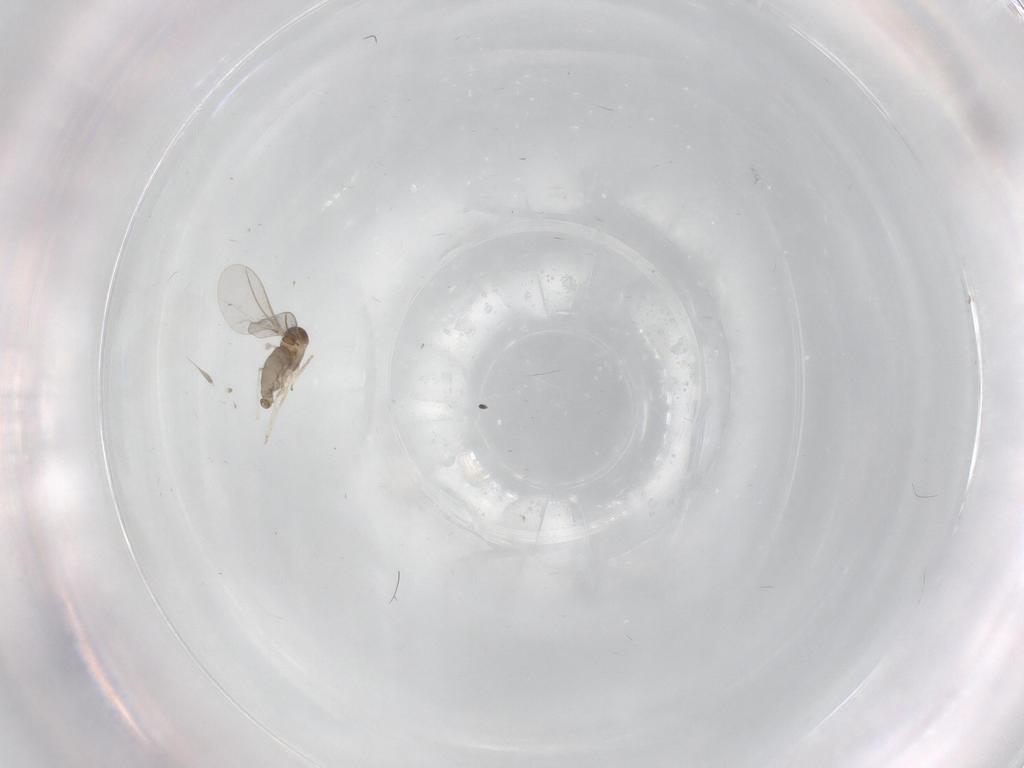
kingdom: Animalia
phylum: Arthropoda
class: Insecta
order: Diptera
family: Cecidomyiidae
